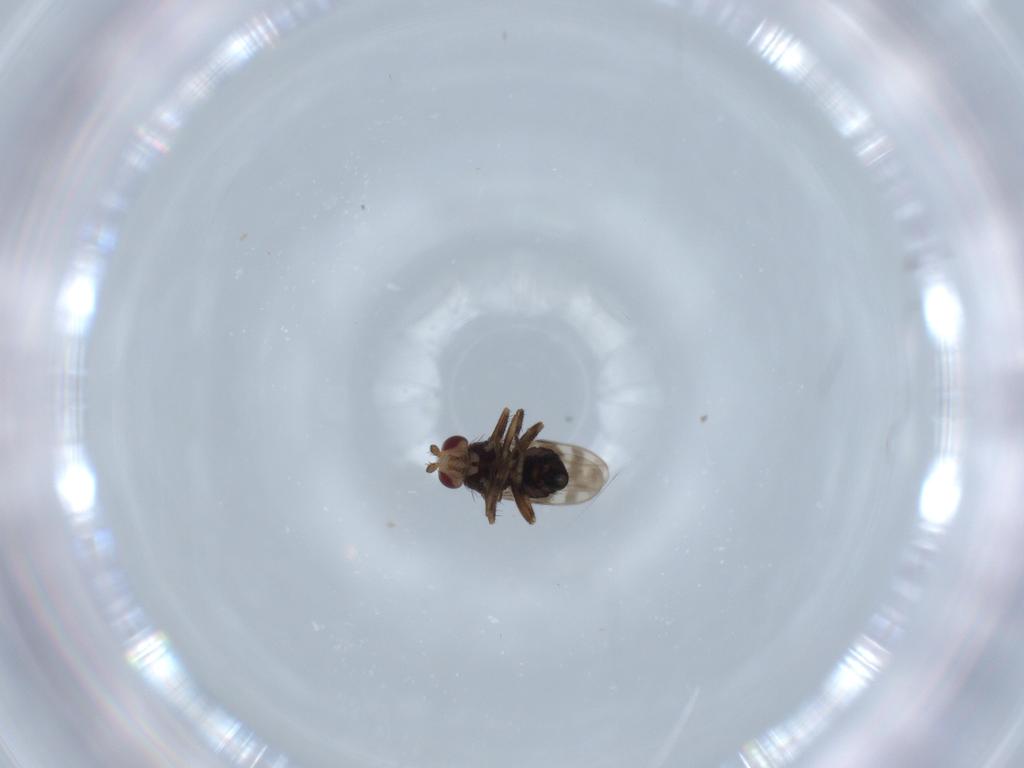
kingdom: Animalia
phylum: Arthropoda
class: Insecta
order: Diptera
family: Sphaeroceridae
